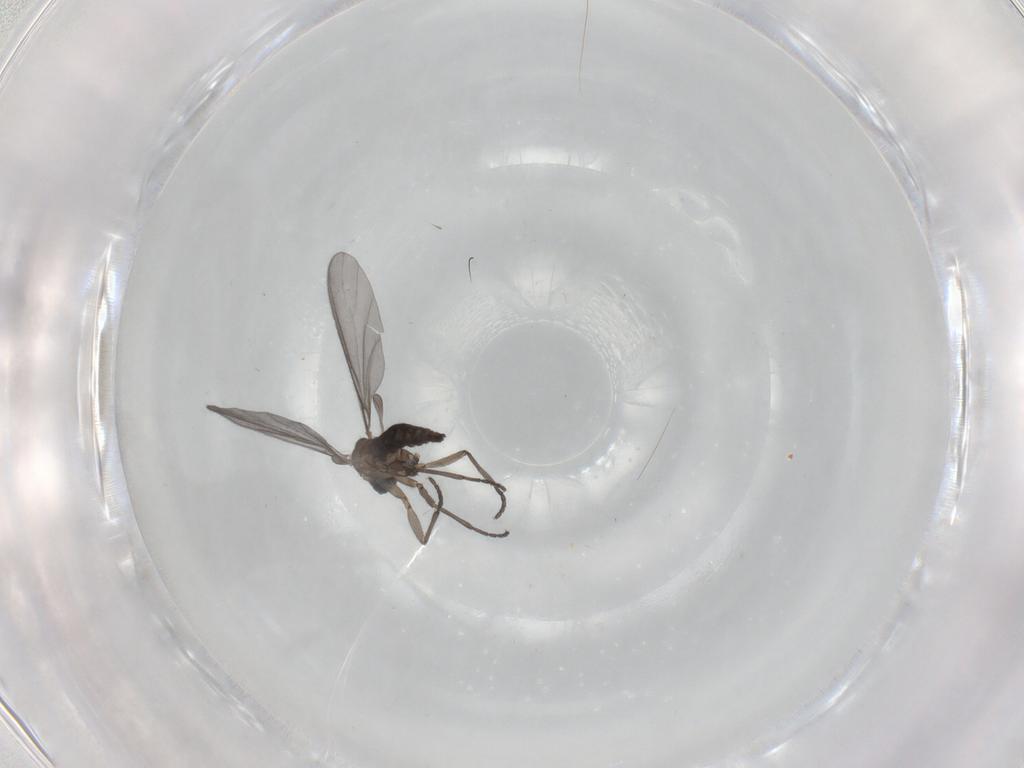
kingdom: Animalia
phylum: Arthropoda
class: Insecta
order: Diptera
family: Sciaridae
